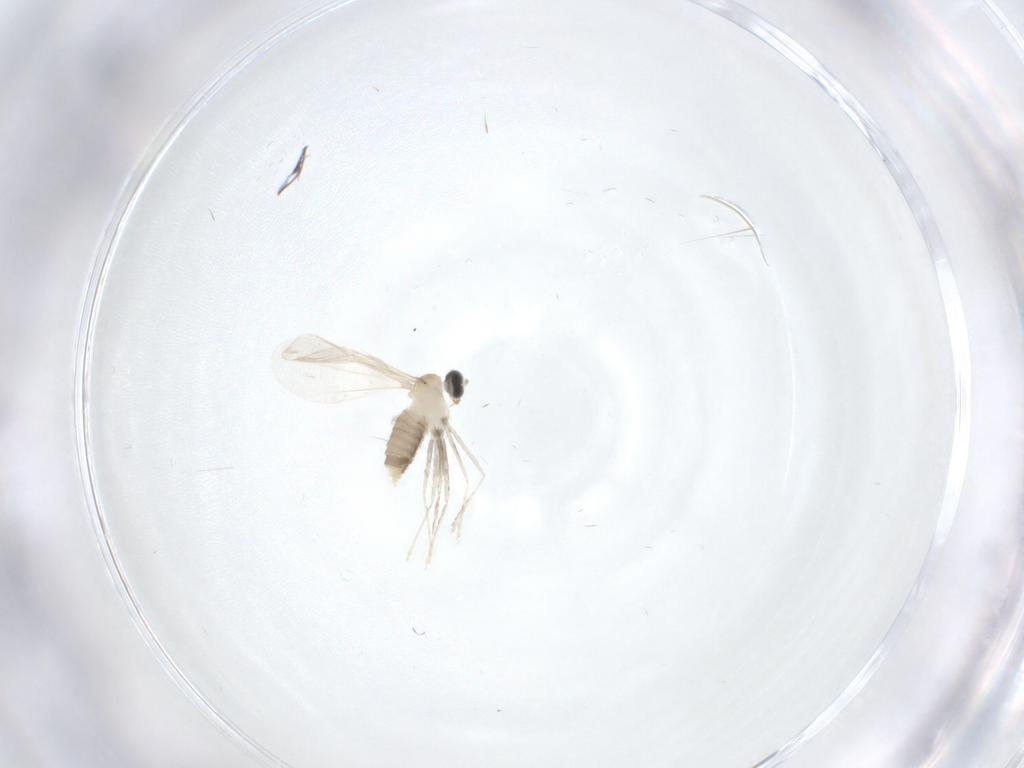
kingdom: Animalia
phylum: Arthropoda
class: Insecta
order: Diptera
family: Cecidomyiidae
